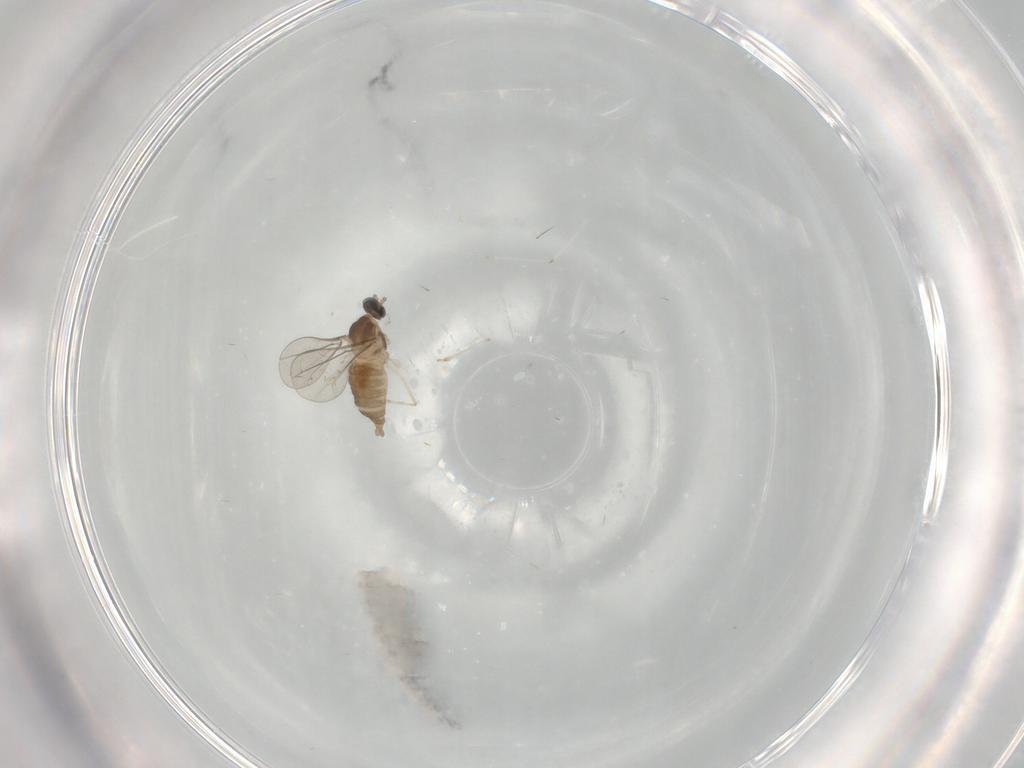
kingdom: Animalia
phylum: Arthropoda
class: Insecta
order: Diptera
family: Cecidomyiidae
